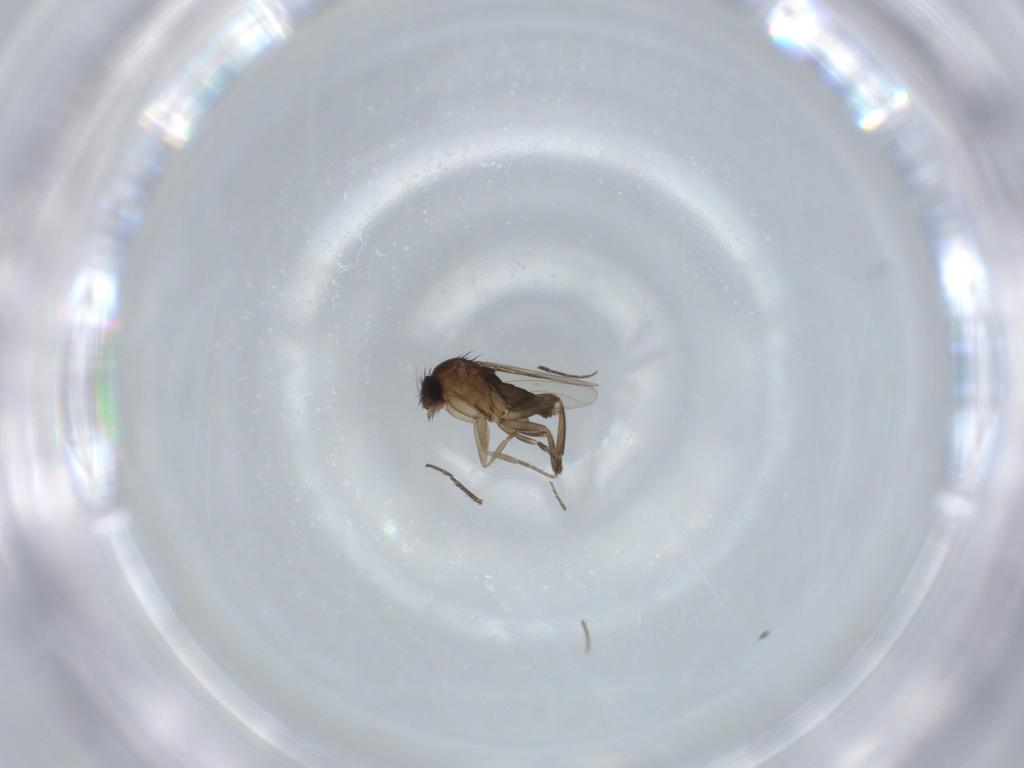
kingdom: Animalia
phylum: Arthropoda
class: Insecta
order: Diptera
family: Phoridae
